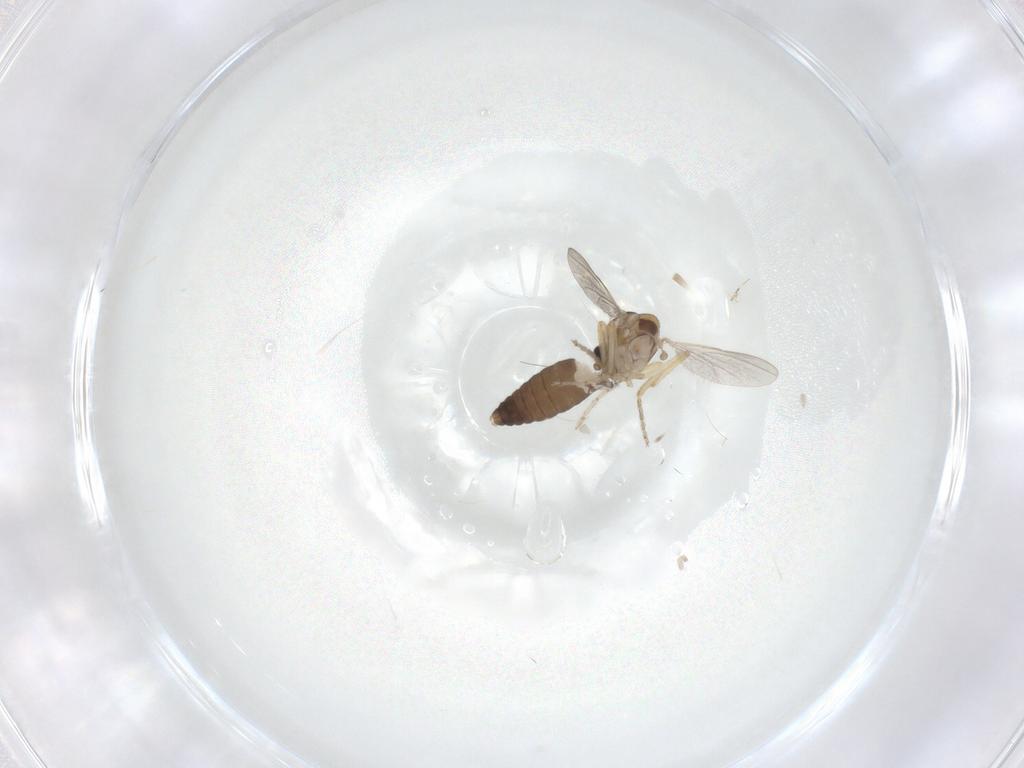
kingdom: Animalia
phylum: Arthropoda
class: Insecta
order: Diptera
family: Ceratopogonidae
